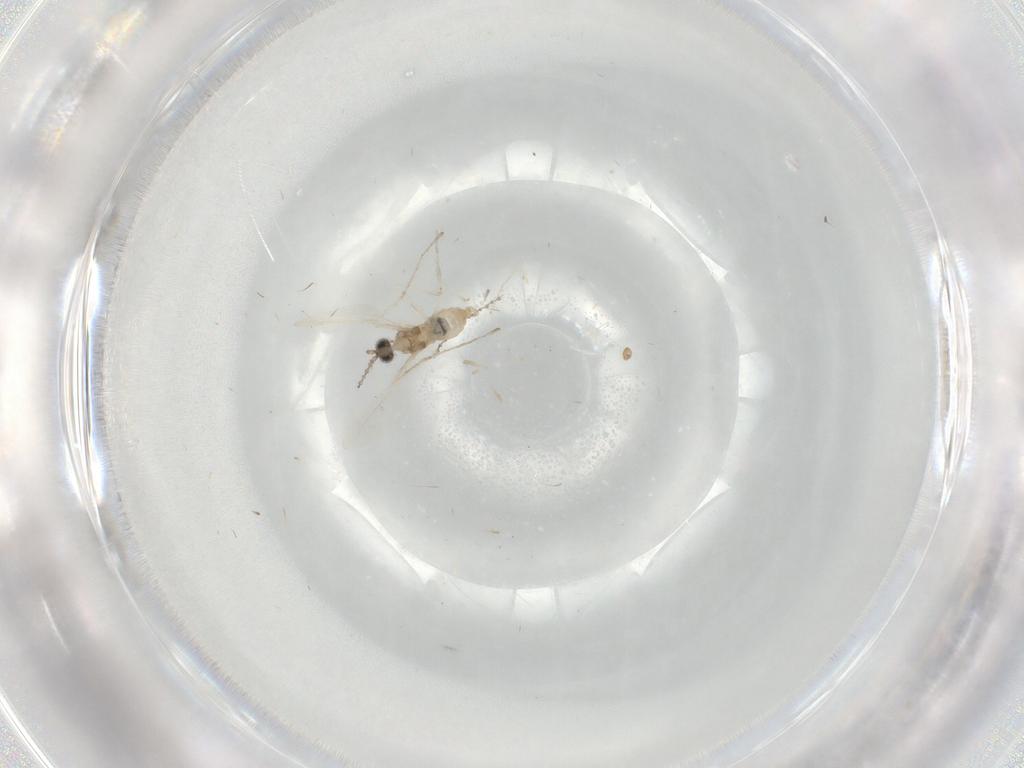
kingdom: Animalia
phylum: Arthropoda
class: Insecta
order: Diptera
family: Cecidomyiidae
